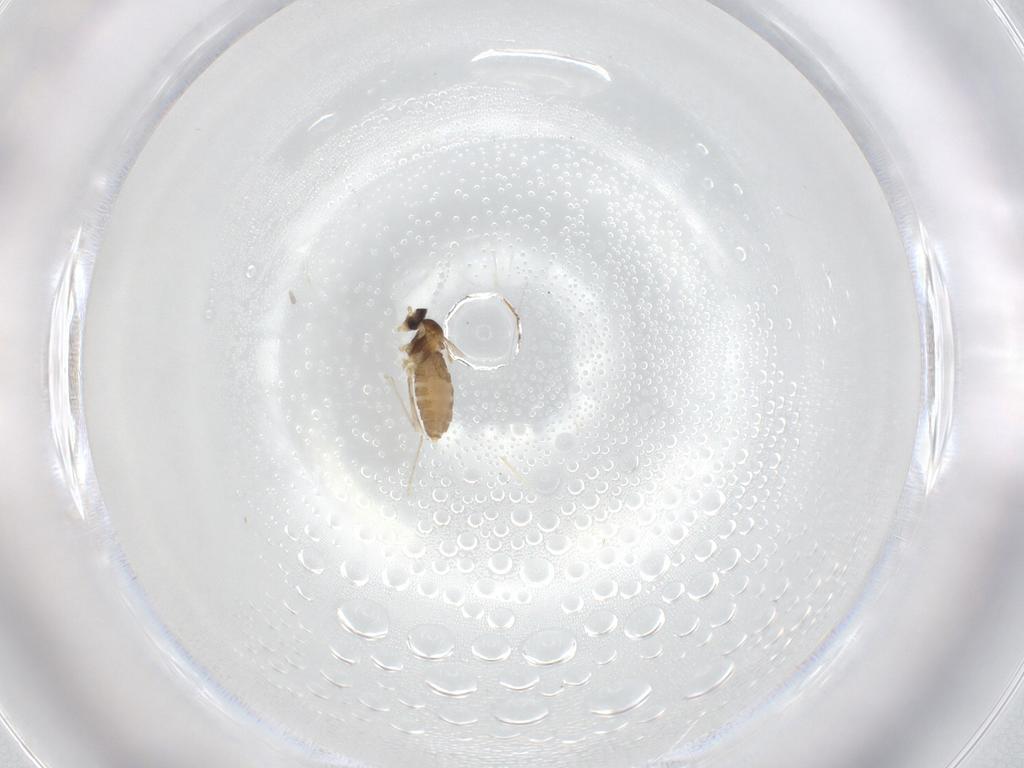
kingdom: Animalia
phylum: Arthropoda
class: Insecta
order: Diptera
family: Cecidomyiidae
